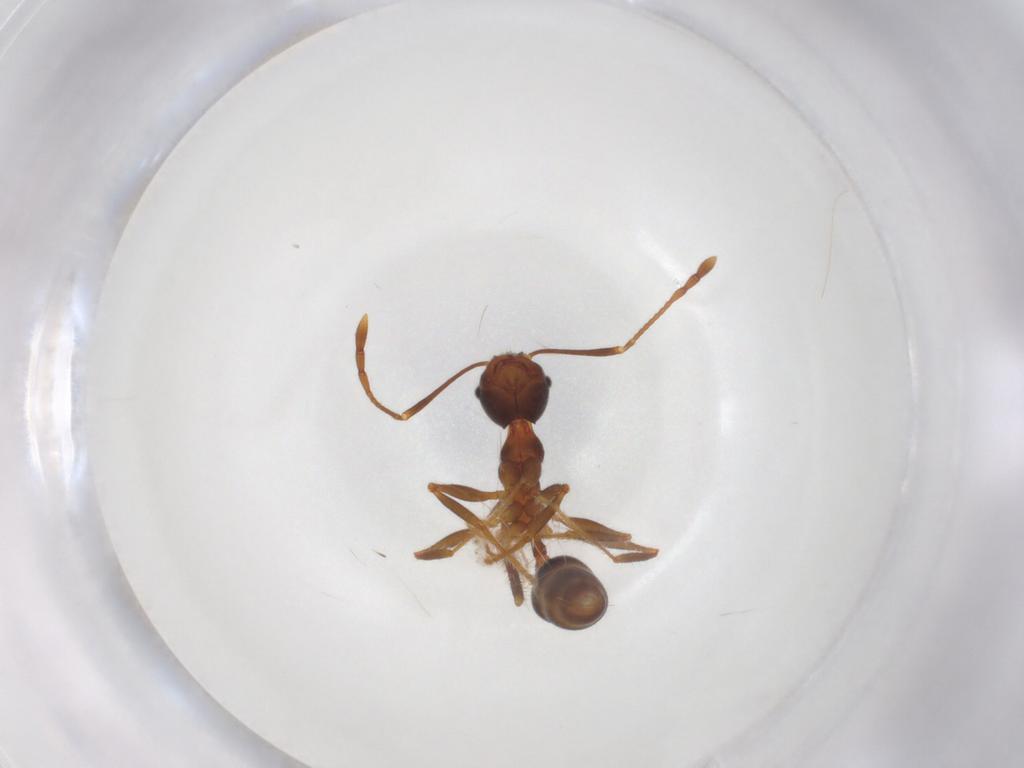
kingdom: Animalia
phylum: Arthropoda
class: Insecta
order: Hymenoptera
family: Formicidae
